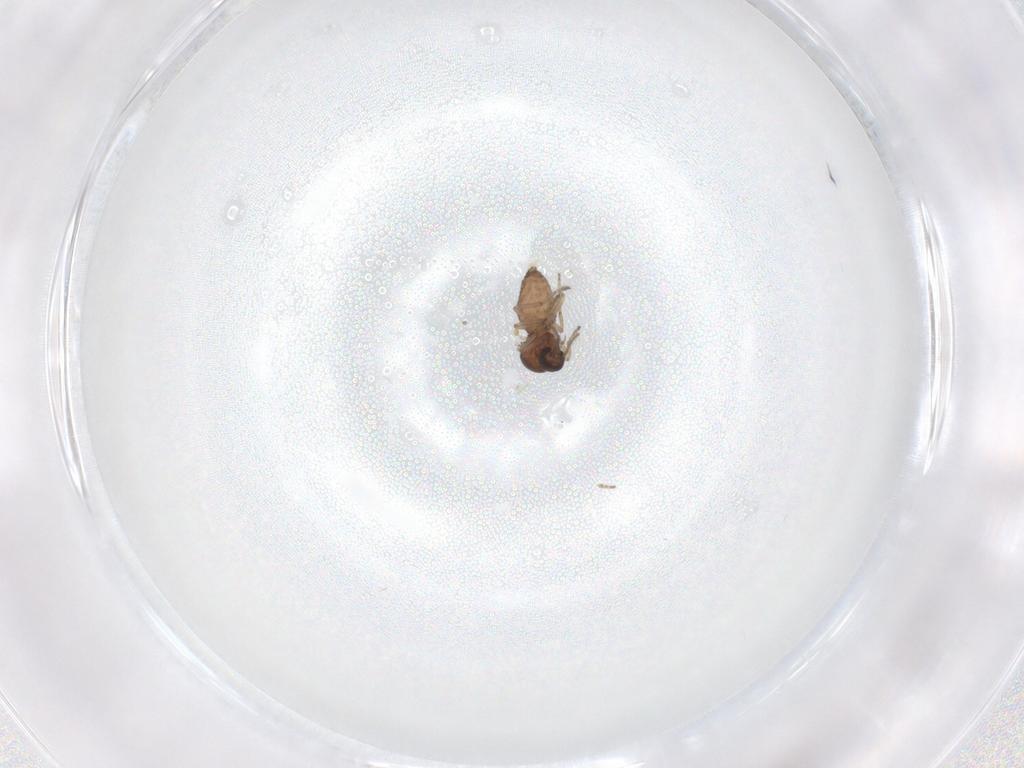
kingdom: Animalia
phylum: Arthropoda
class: Insecta
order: Diptera
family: Ceratopogonidae
